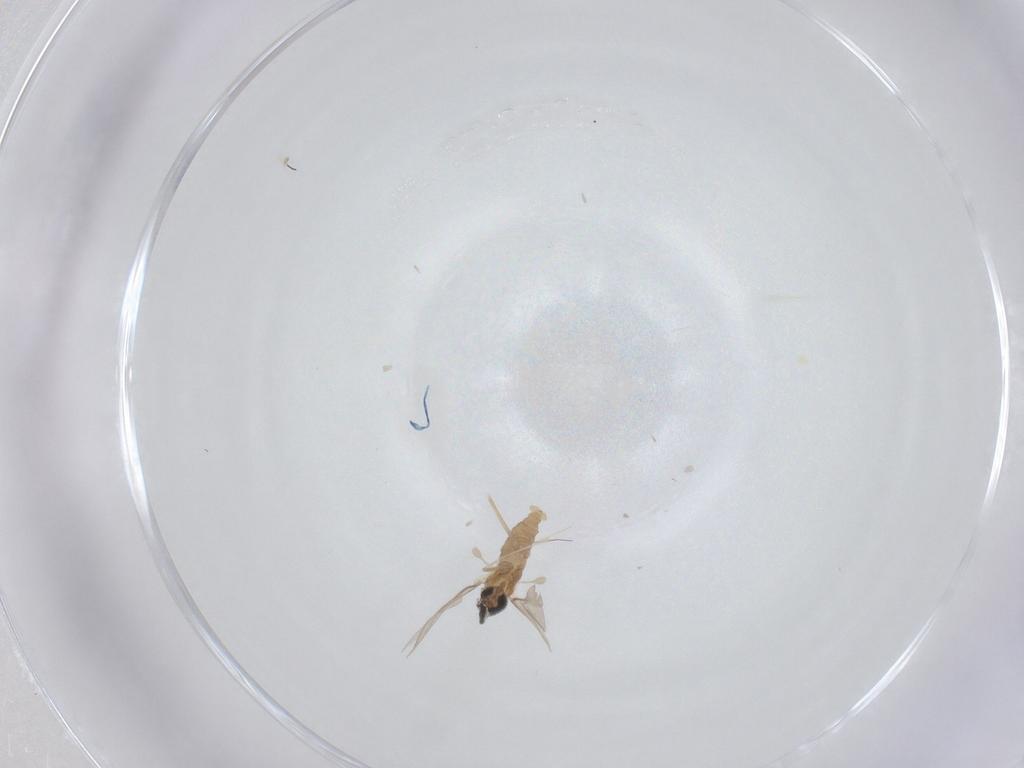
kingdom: Animalia
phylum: Arthropoda
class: Insecta
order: Diptera
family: Cecidomyiidae
